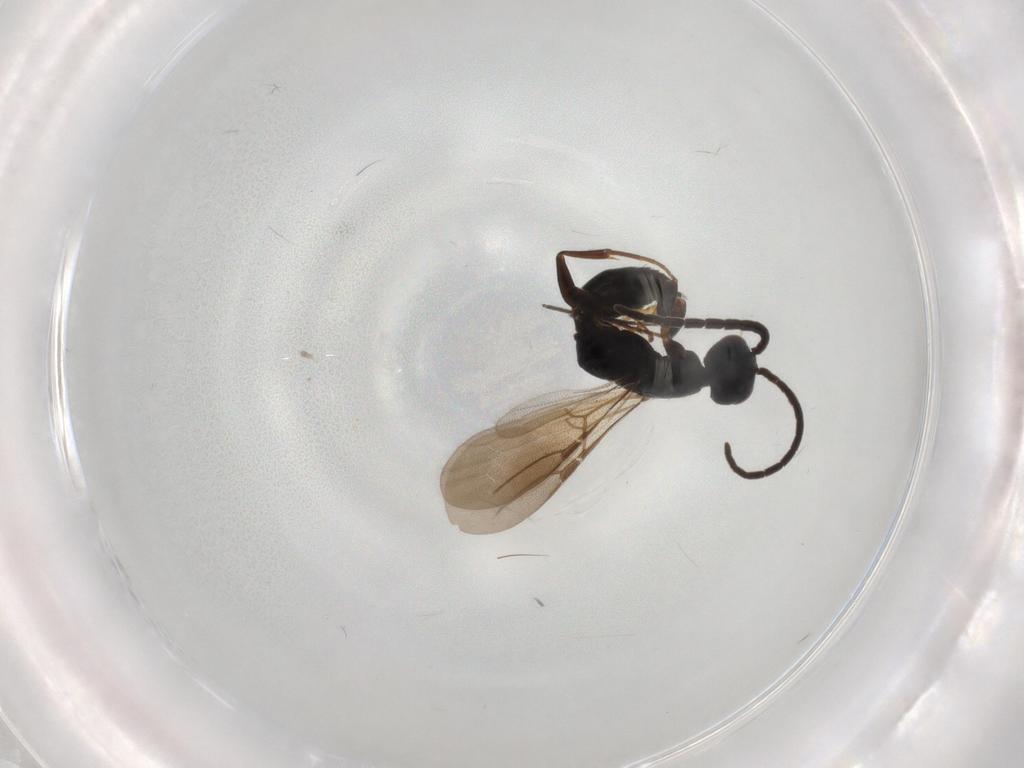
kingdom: Animalia
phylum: Arthropoda
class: Insecta
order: Hymenoptera
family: Bethylidae
